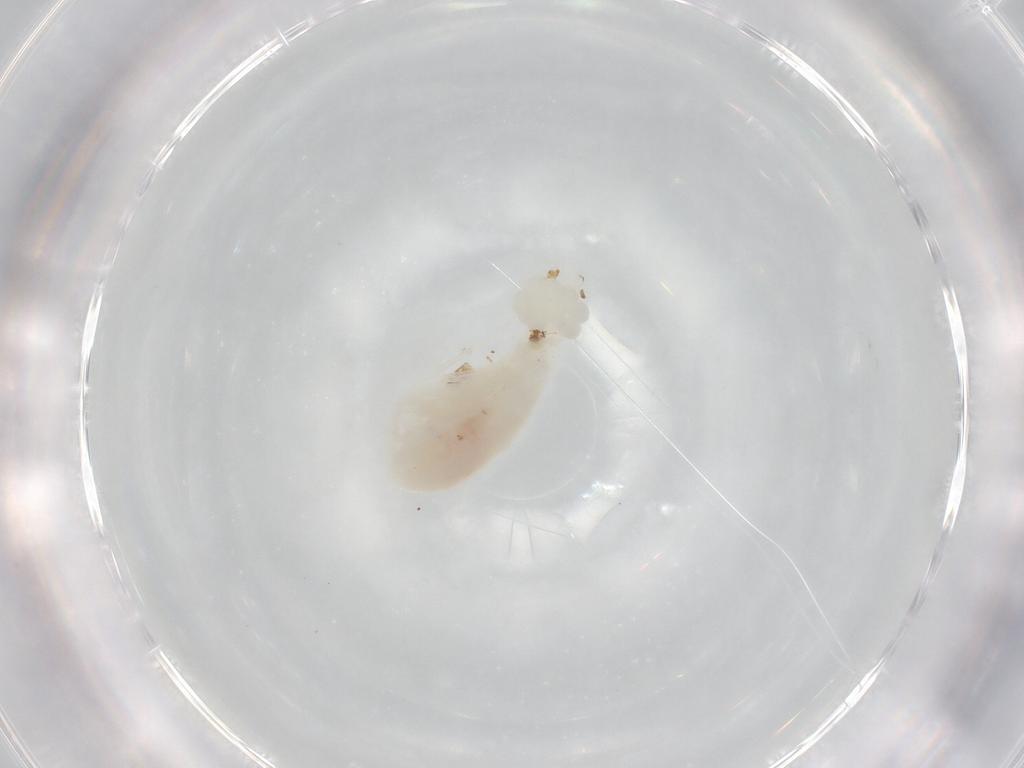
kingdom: Animalia
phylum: Arthropoda
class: Copepoda
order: Calanoida
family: Diaptomidae
